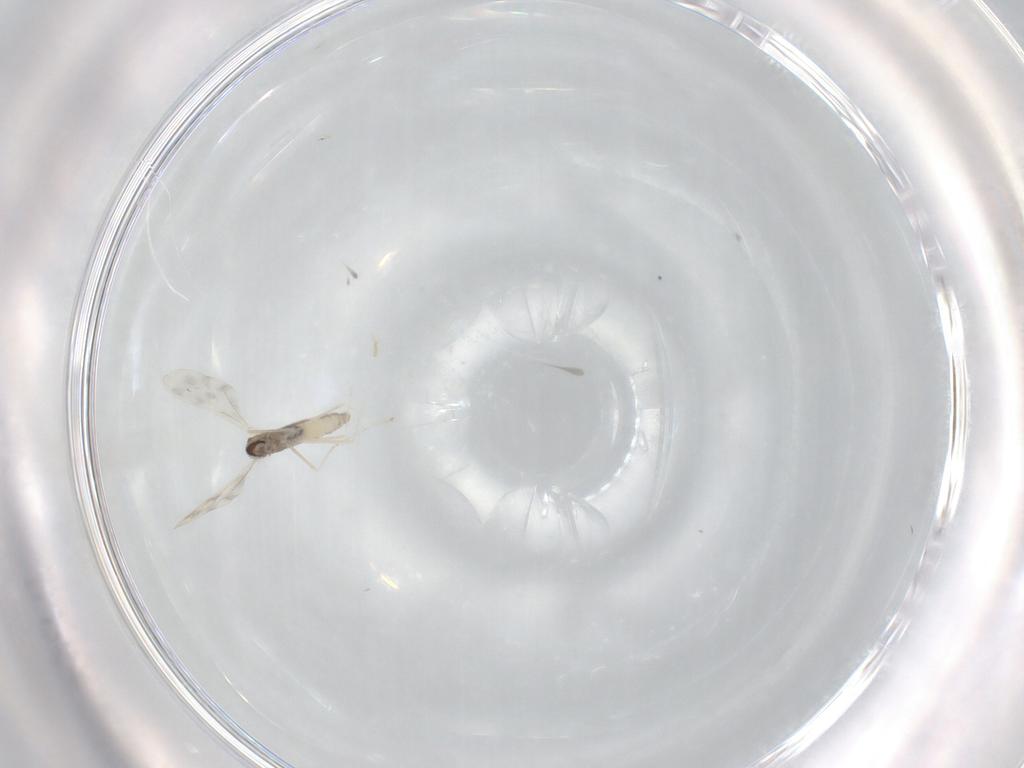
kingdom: Animalia
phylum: Arthropoda
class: Insecta
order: Diptera
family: Cecidomyiidae
